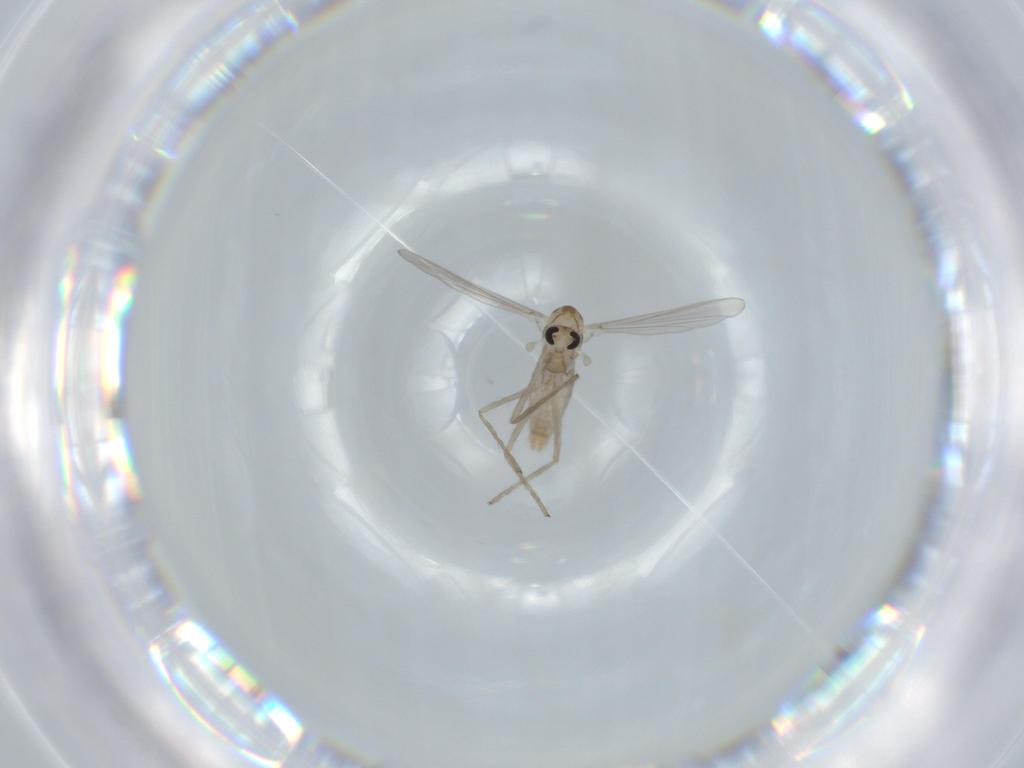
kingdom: Animalia
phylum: Arthropoda
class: Insecta
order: Diptera
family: Chironomidae
